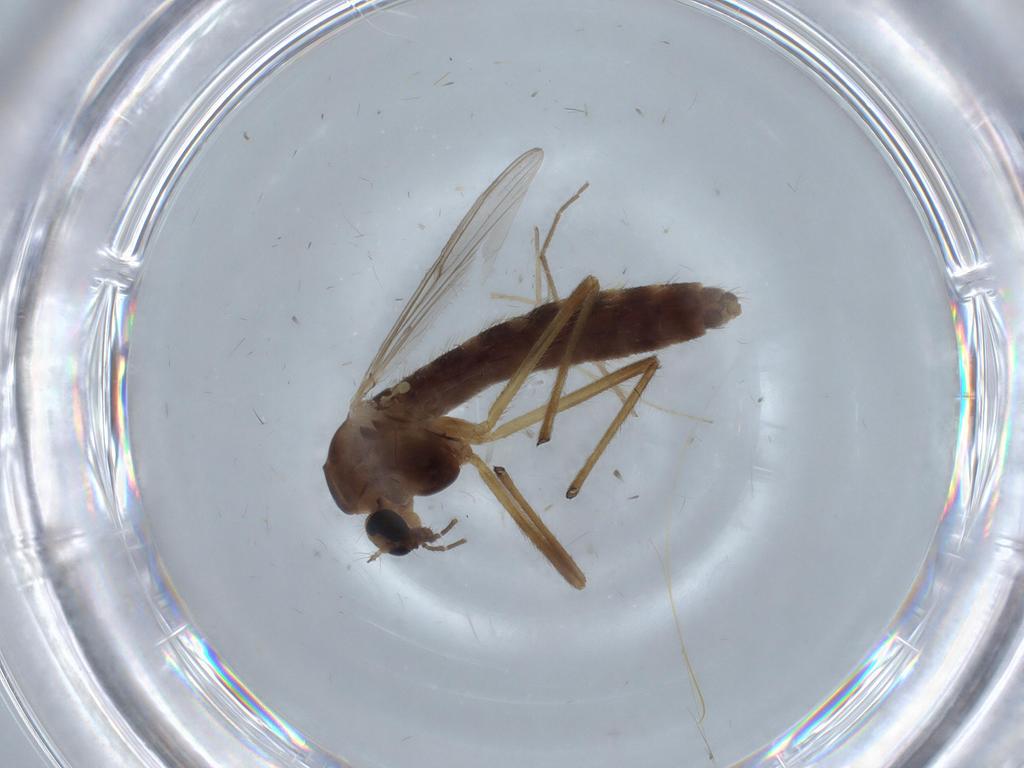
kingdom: Animalia
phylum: Arthropoda
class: Insecta
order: Diptera
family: Chironomidae
